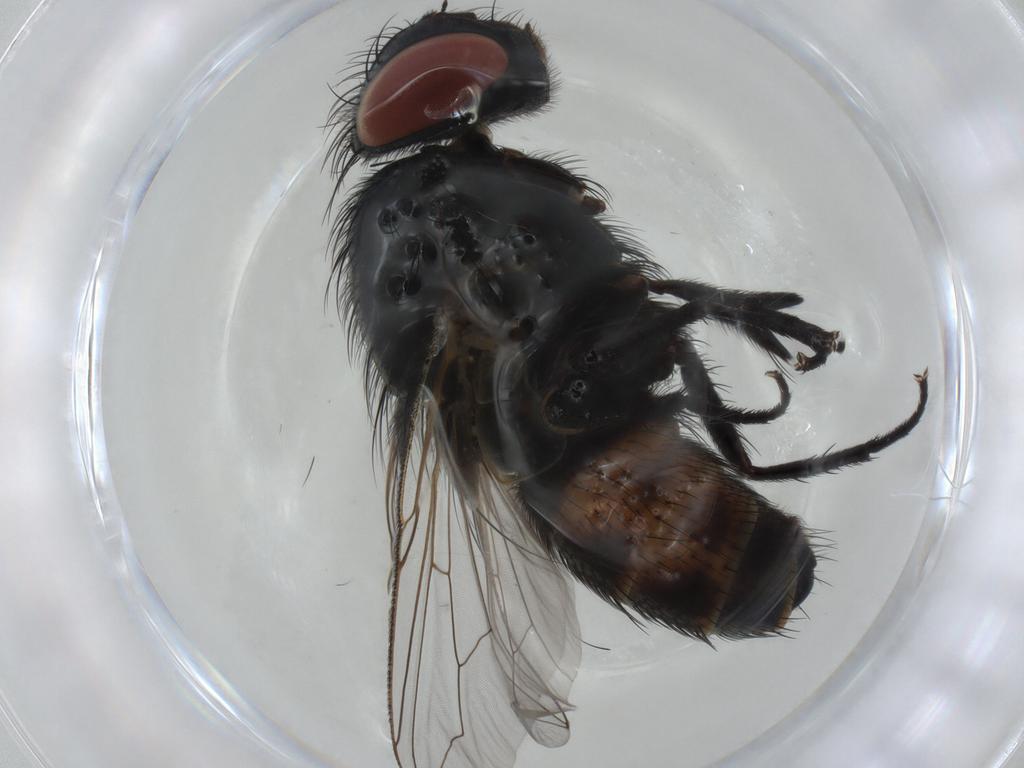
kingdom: Animalia
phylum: Arthropoda
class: Insecta
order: Diptera
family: Sarcophagidae
